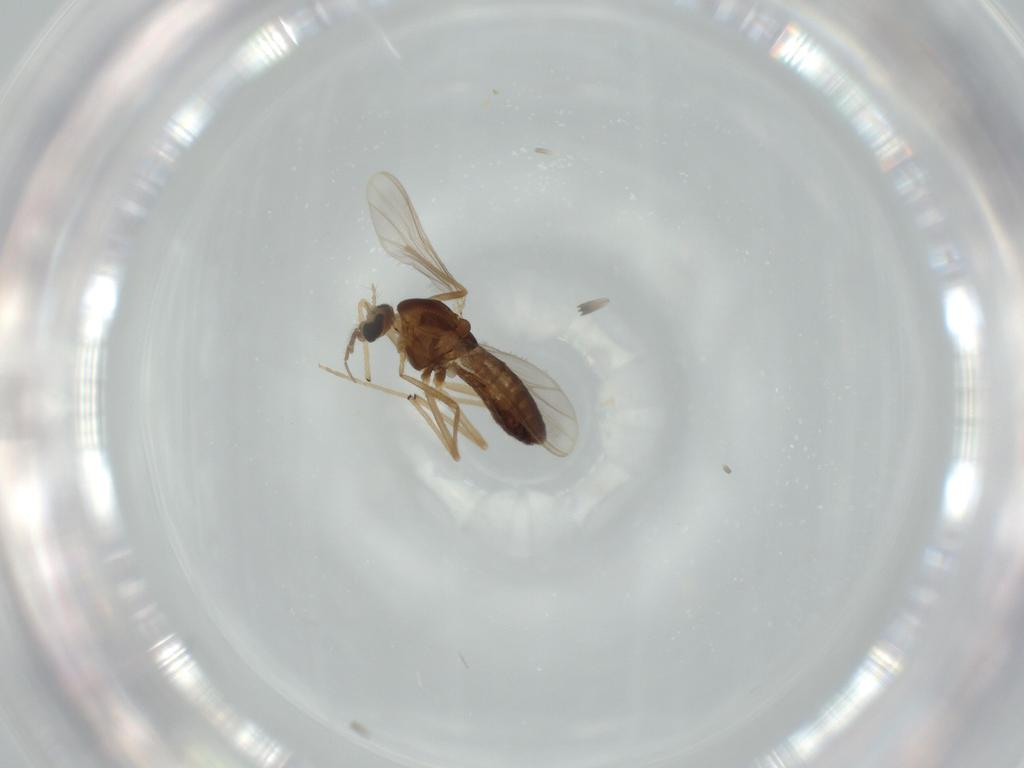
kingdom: Animalia
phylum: Arthropoda
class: Insecta
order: Diptera
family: Chironomidae
